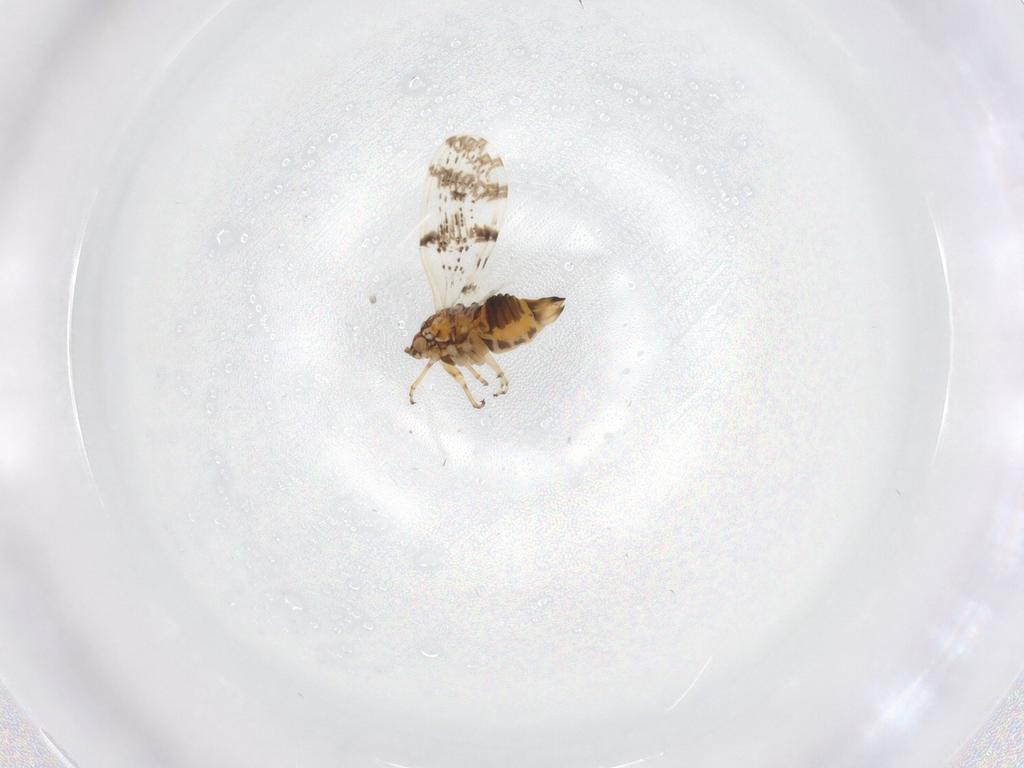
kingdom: Animalia
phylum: Arthropoda
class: Insecta
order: Hemiptera
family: Psylloidea_incertae_sedis
